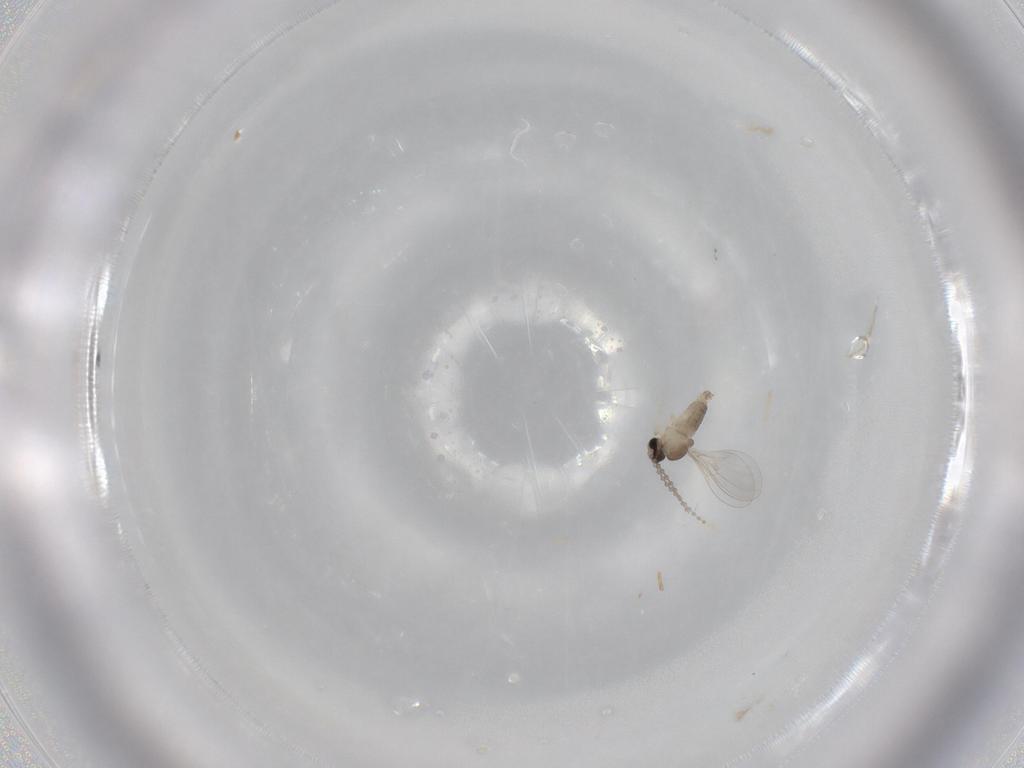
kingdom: Animalia
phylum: Arthropoda
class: Insecta
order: Diptera
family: Cecidomyiidae
